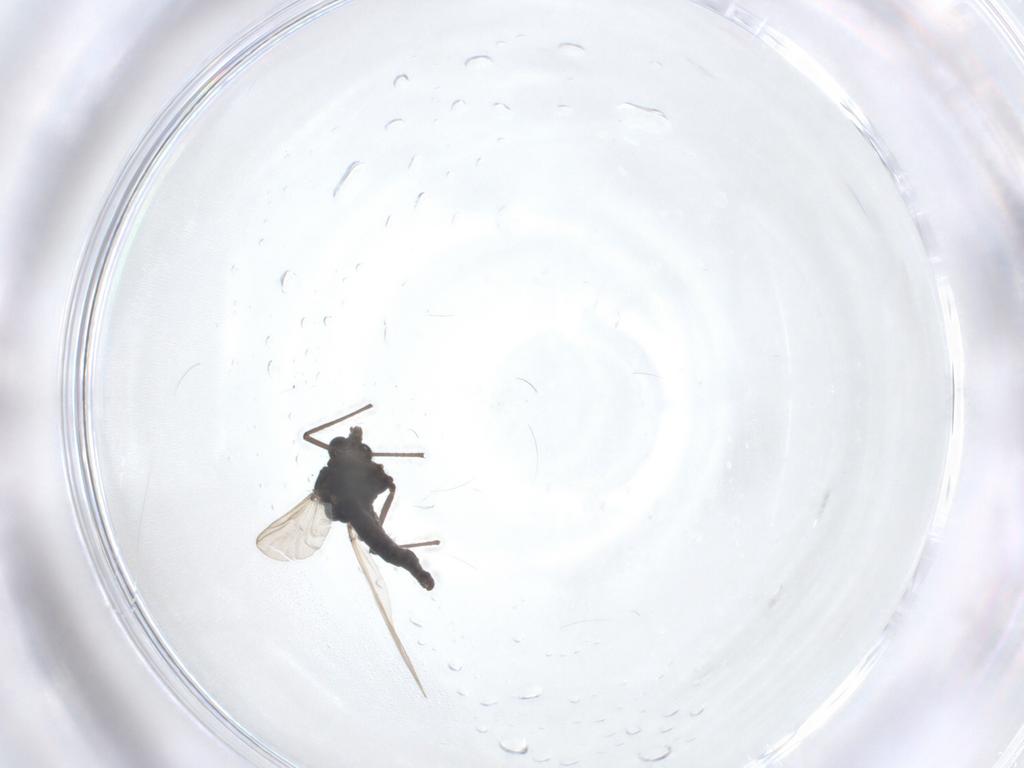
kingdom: Animalia
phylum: Arthropoda
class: Insecta
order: Diptera
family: Chironomidae
